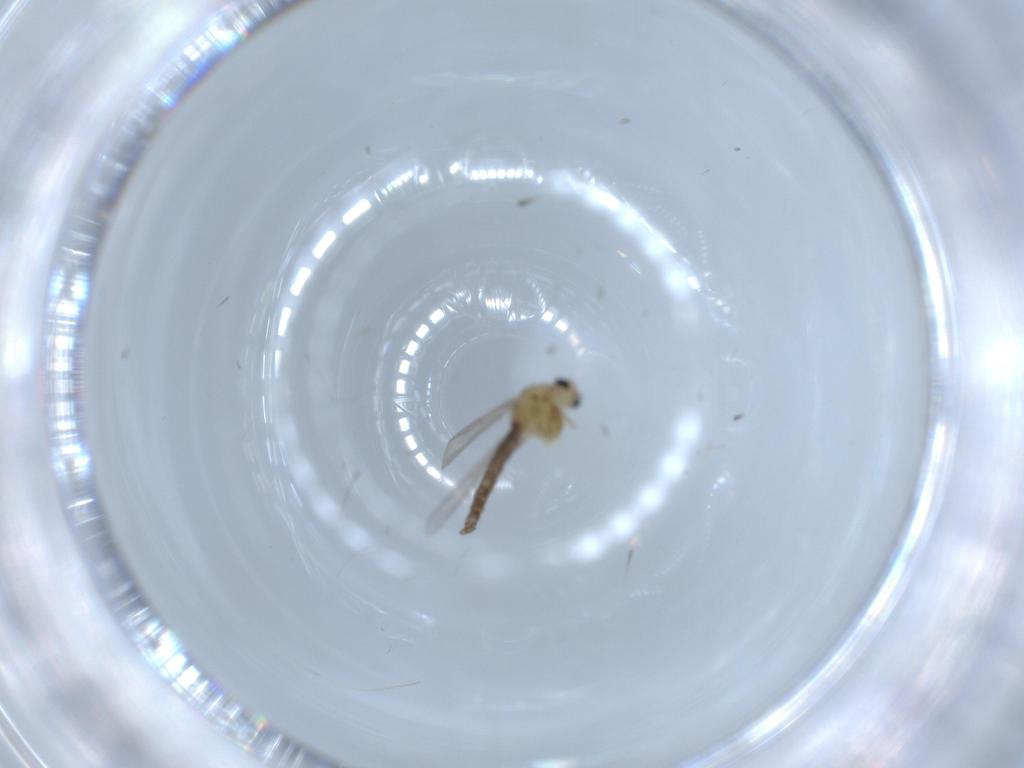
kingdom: Animalia
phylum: Arthropoda
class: Insecta
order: Diptera
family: Chironomidae
